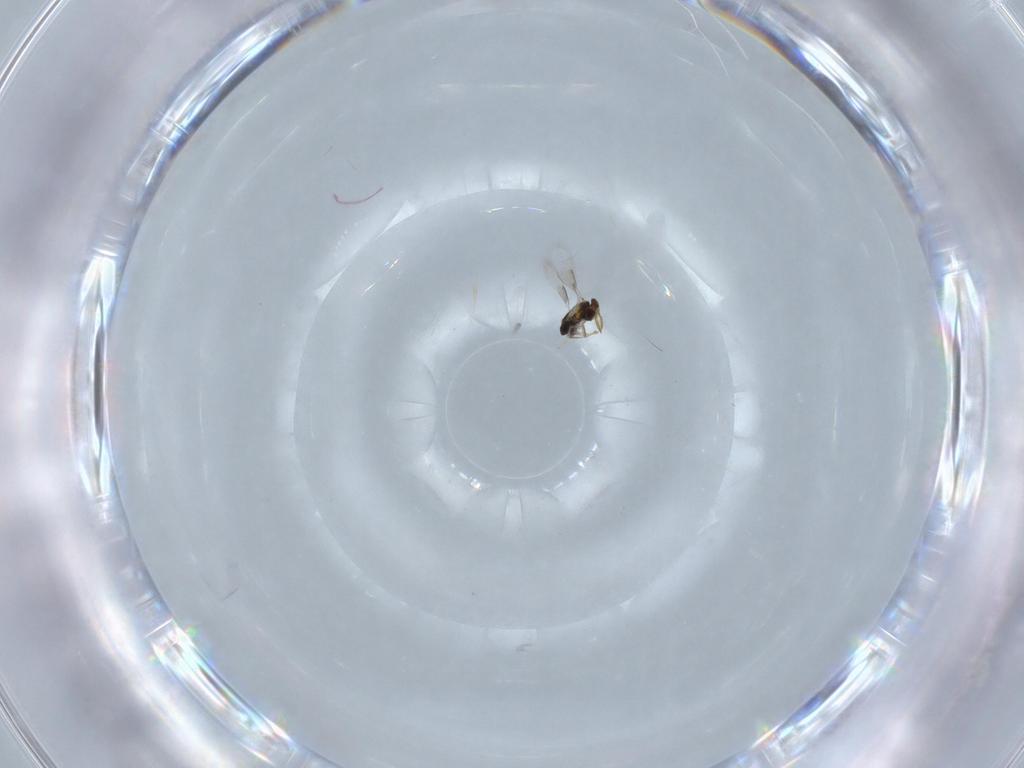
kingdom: Animalia
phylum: Arthropoda
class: Insecta
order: Hymenoptera
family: Aphelinidae
